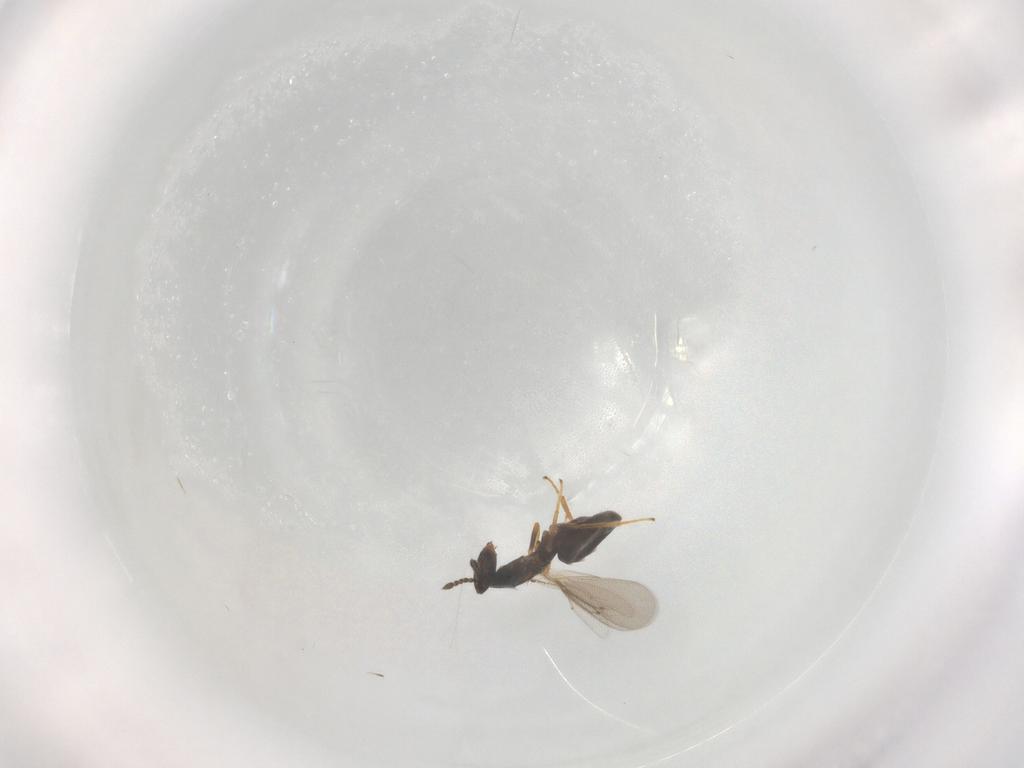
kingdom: Animalia
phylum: Arthropoda
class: Insecta
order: Hymenoptera
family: Eulophidae
